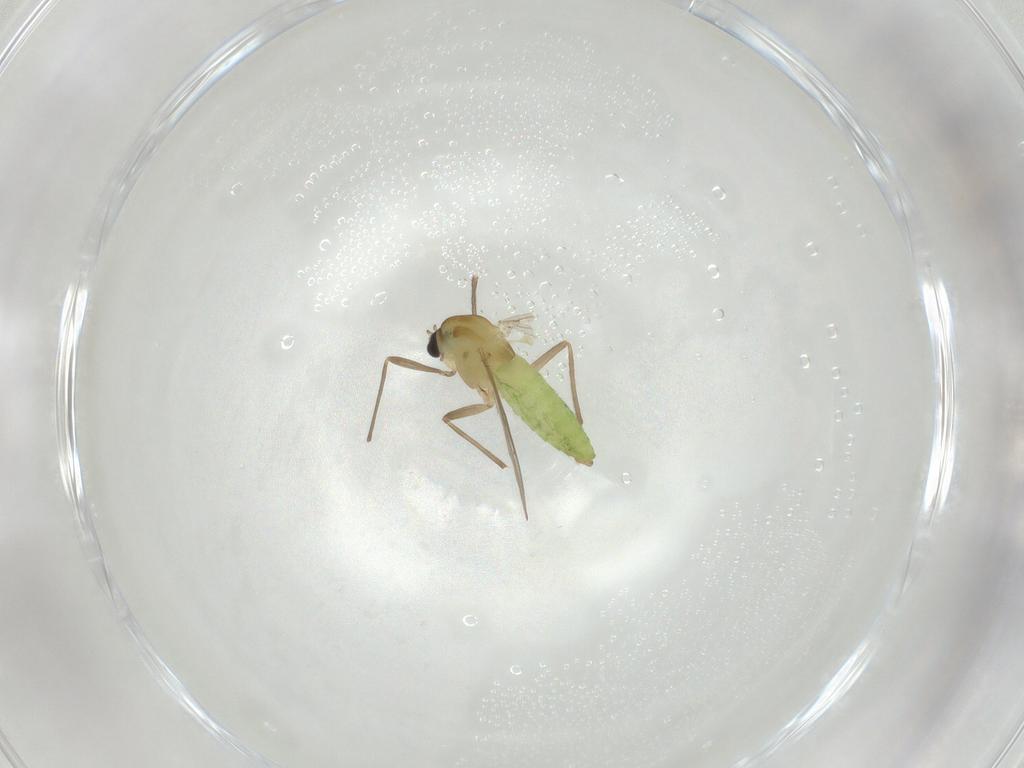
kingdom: Animalia
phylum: Arthropoda
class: Insecta
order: Diptera
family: Chironomidae
